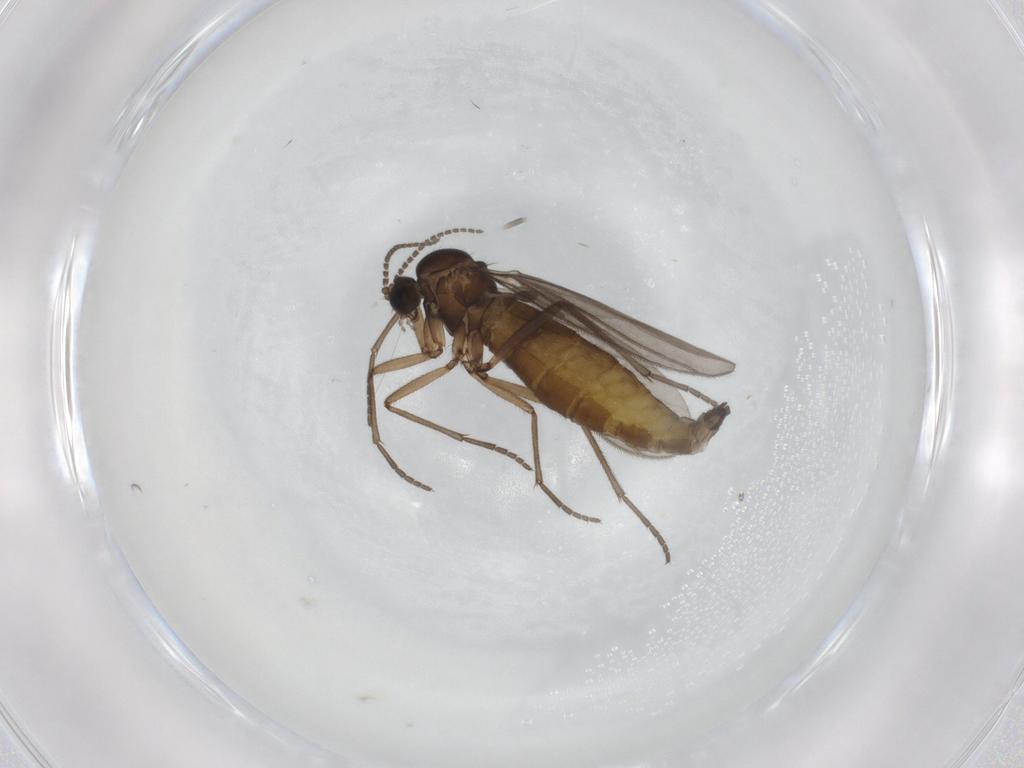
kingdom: Animalia
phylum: Arthropoda
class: Insecta
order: Diptera
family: Sciaridae
